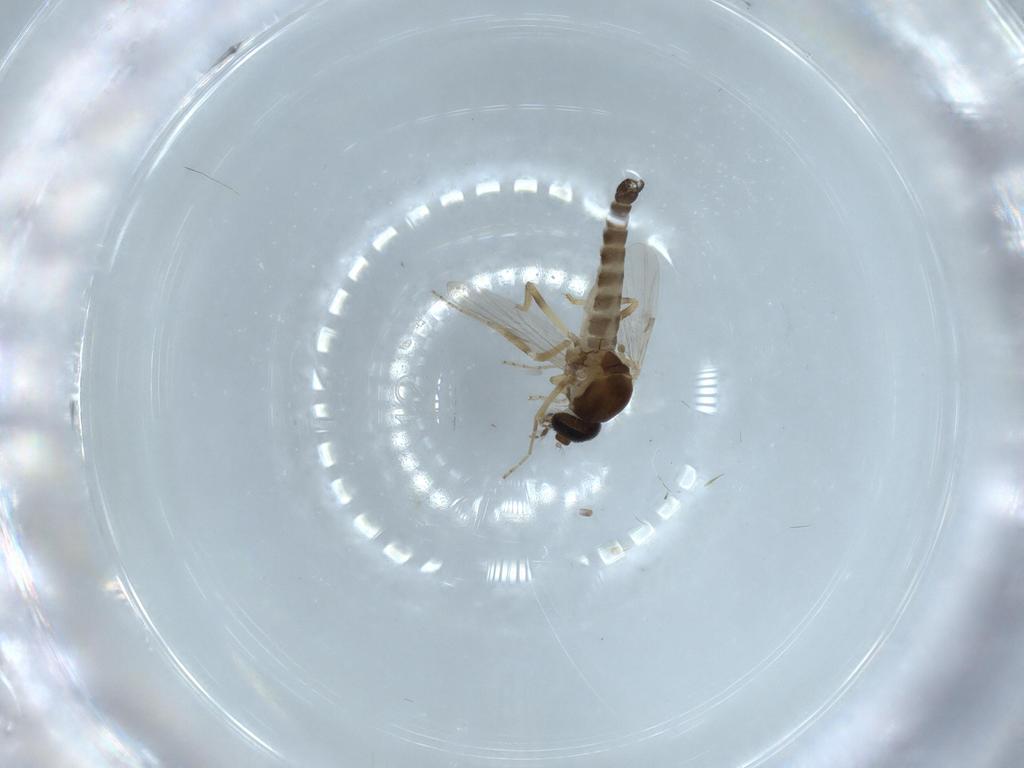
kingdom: Animalia
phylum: Arthropoda
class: Insecta
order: Diptera
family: Ceratopogonidae
